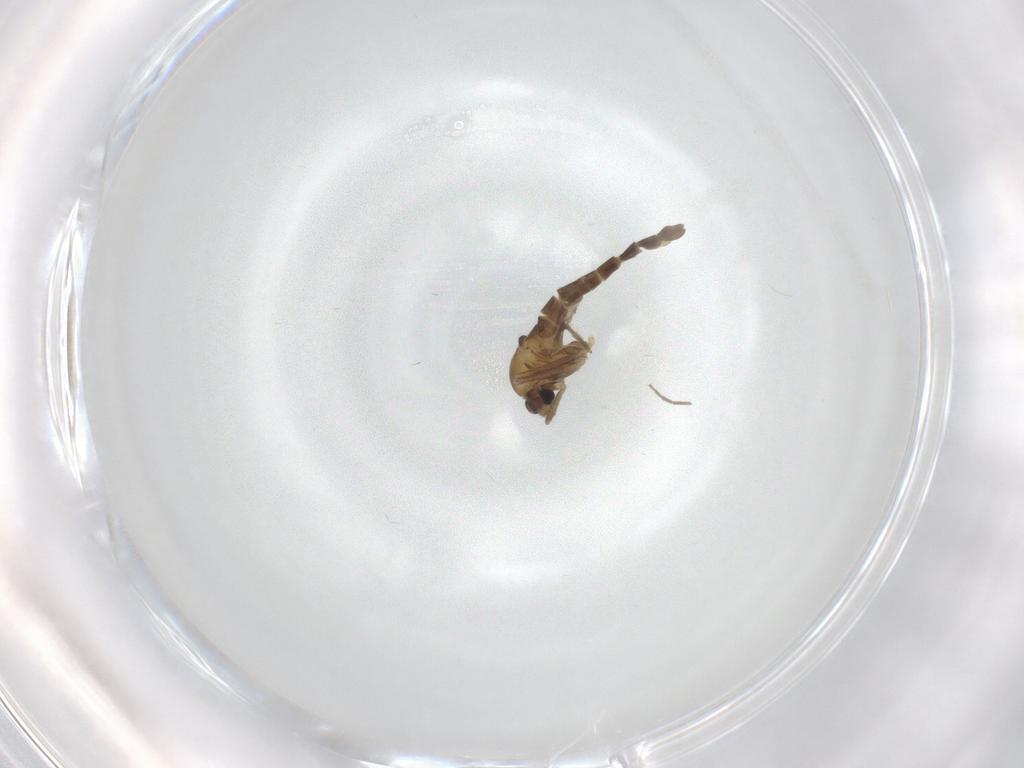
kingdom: Animalia
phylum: Arthropoda
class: Insecta
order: Diptera
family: Chironomidae
